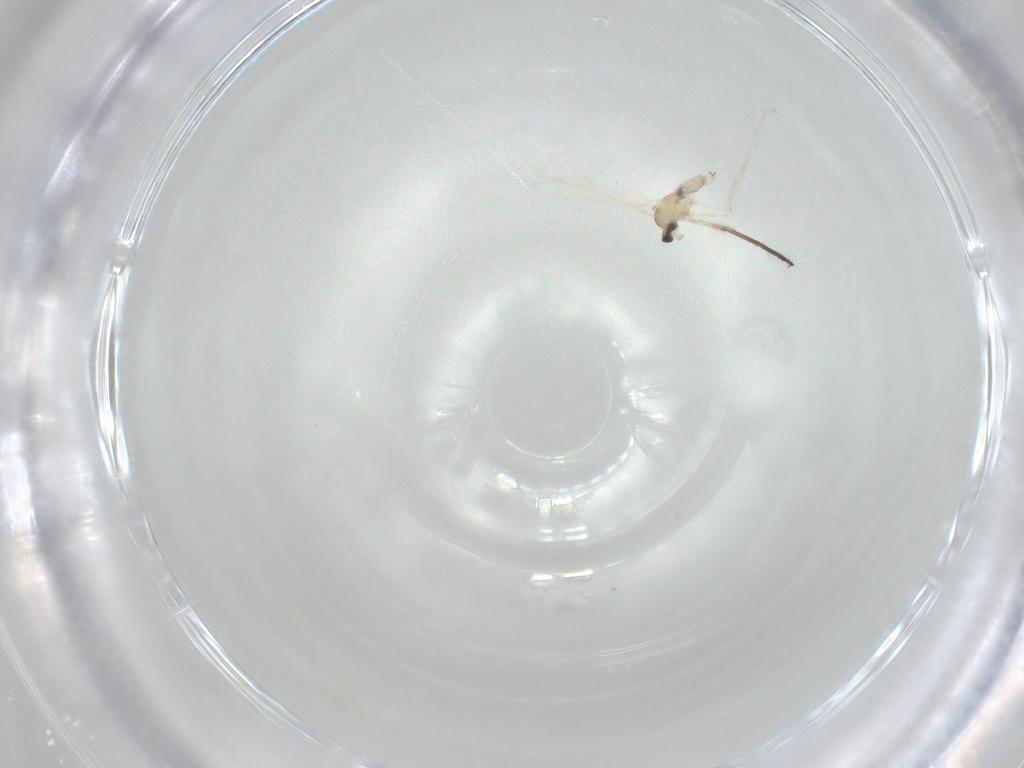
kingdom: Animalia
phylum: Arthropoda
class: Insecta
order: Diptera
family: Cecidomyiidae
